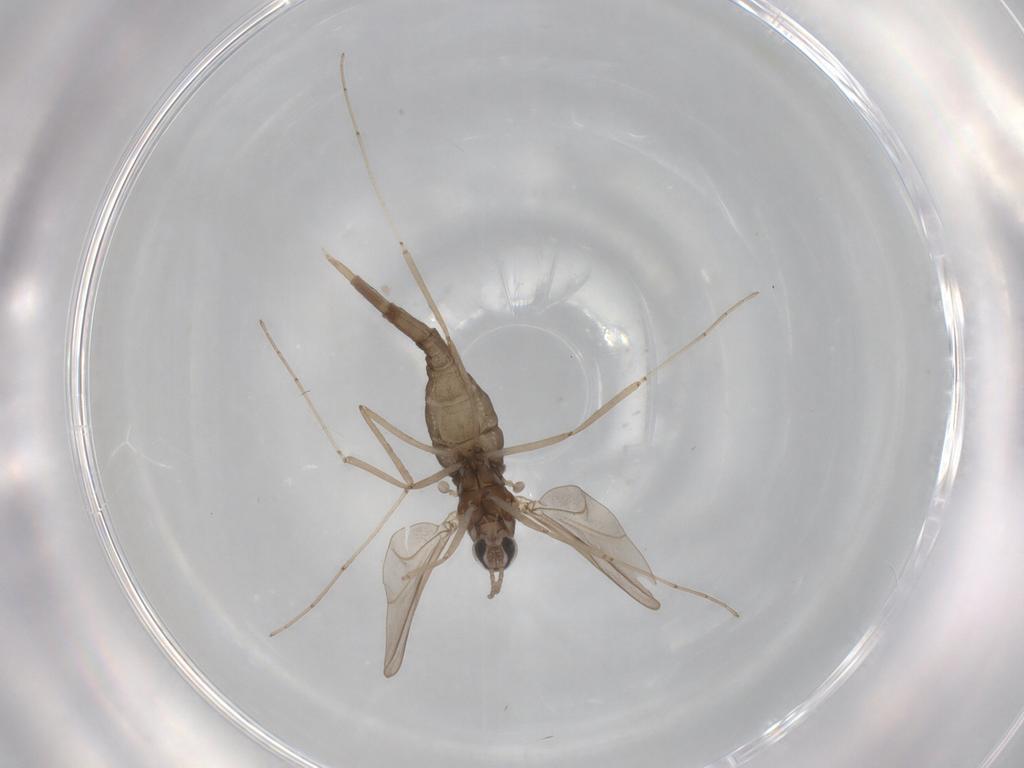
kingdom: Animalia
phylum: Arthropoda
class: Insecta
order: Diptera
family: Cecidomyiidae
